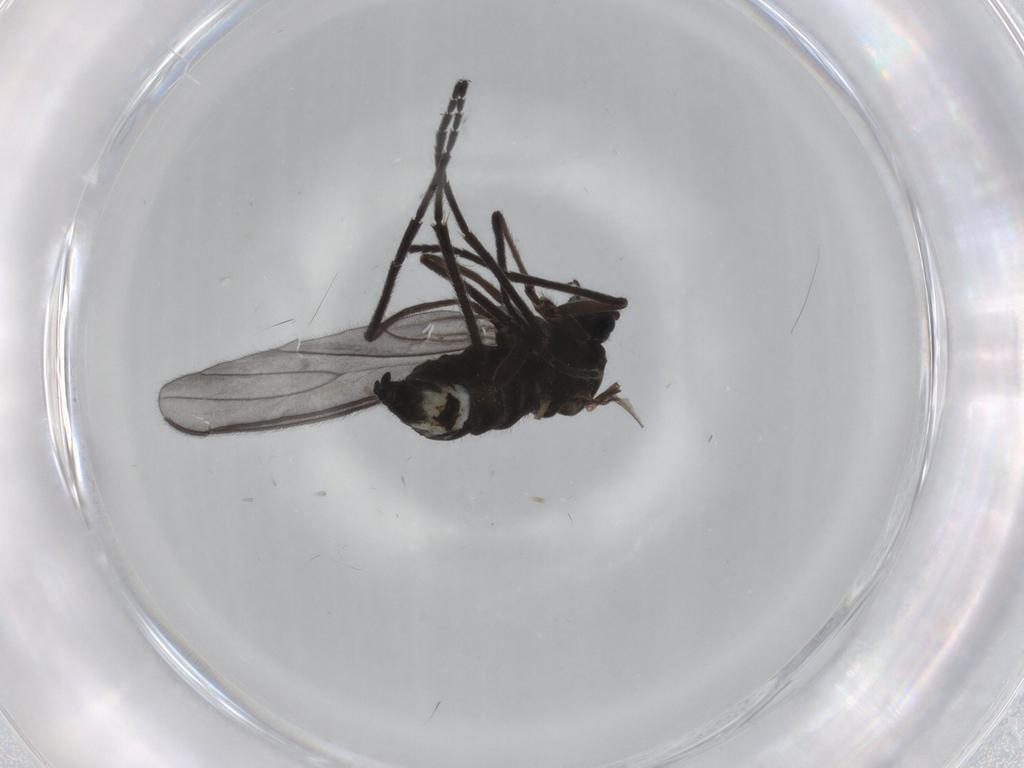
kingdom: Animalia
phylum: Arthropoda
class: Insecta
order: Diptera
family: Sciaridae
